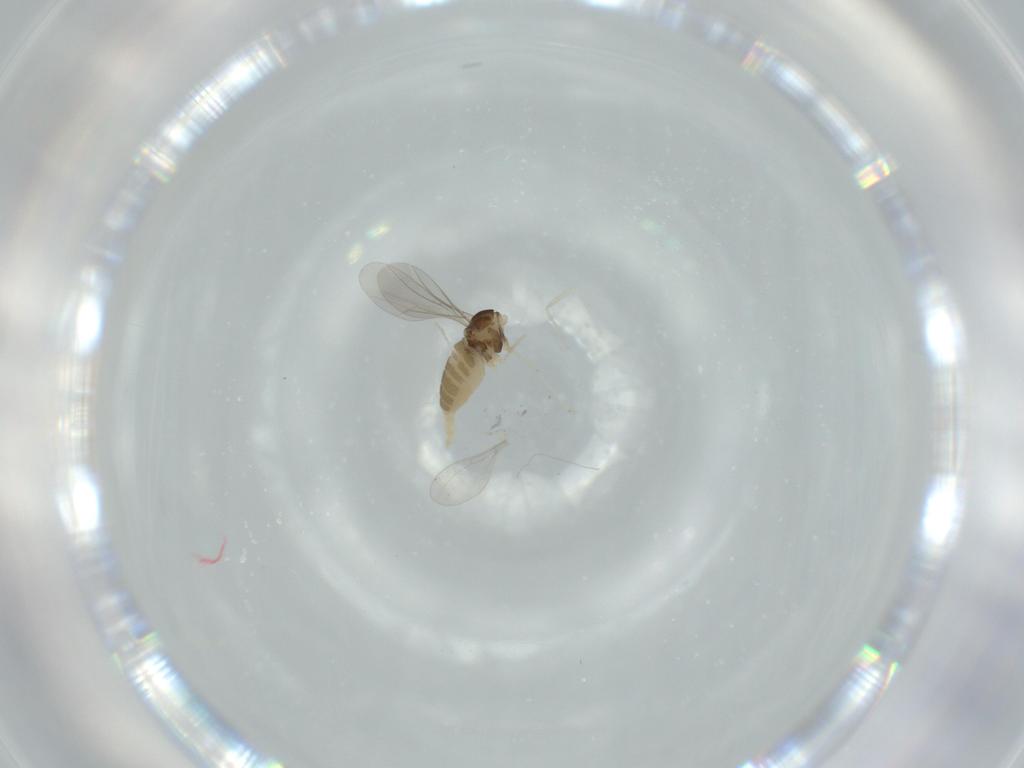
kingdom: Animalia
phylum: Arthropoda
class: Insecta
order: Diptera
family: Cecidomyiidae
